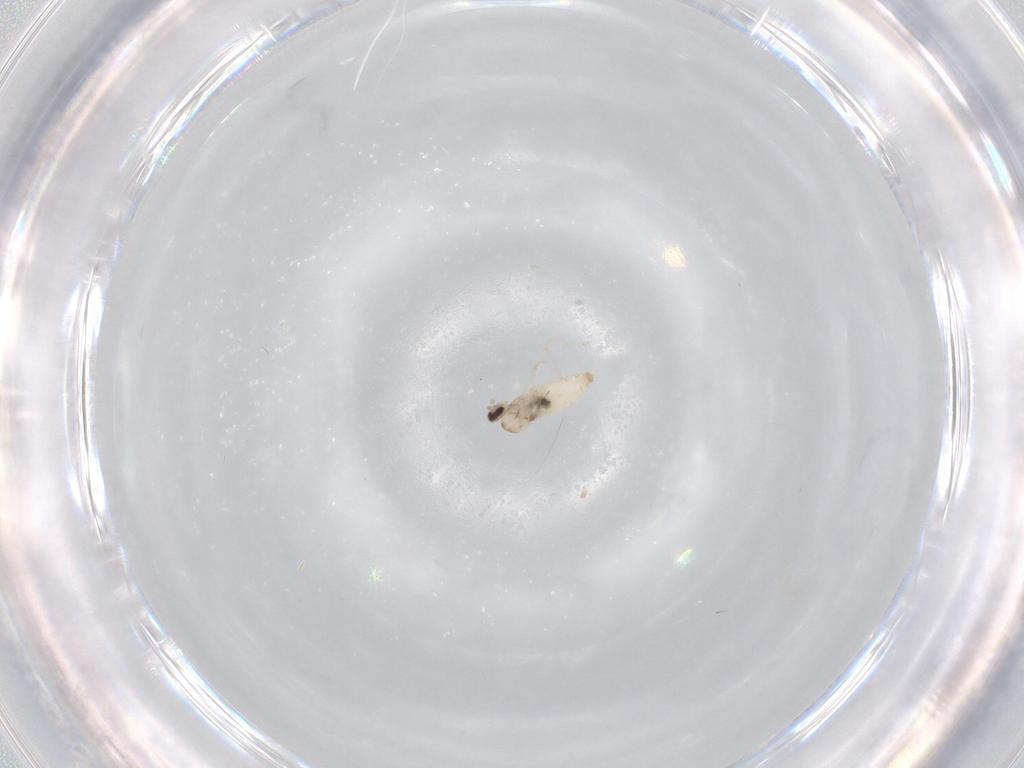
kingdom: Animalia
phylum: Arthropoda
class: Insecta
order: Diptera
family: Cecidomyiidae
